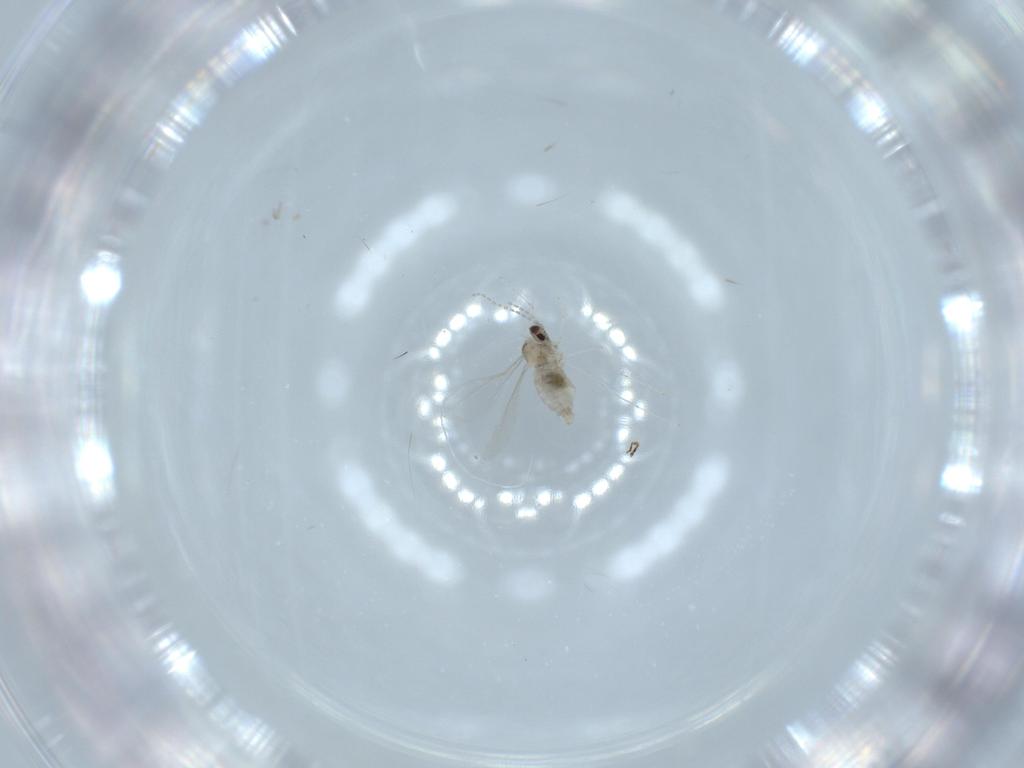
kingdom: Animalia
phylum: Arthropoda
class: Insecta
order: Diptera
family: Cecidomyiidae
